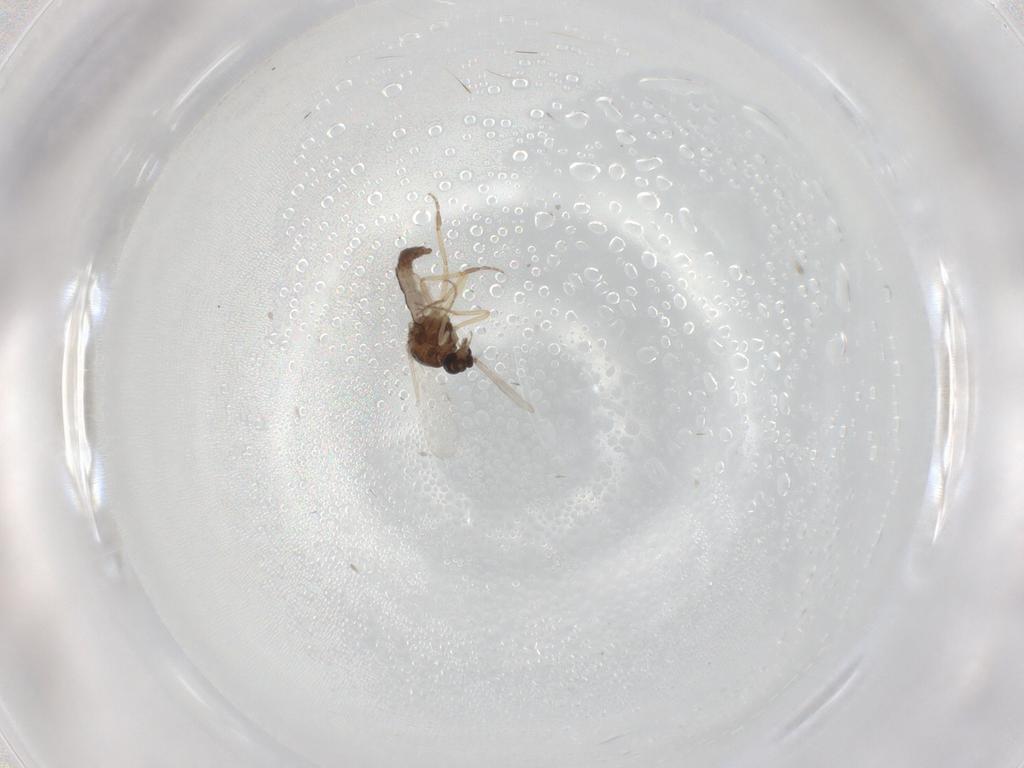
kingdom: Animalia
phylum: Arthropoda
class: Insecta
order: Diptera
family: Ceratopogonidae
